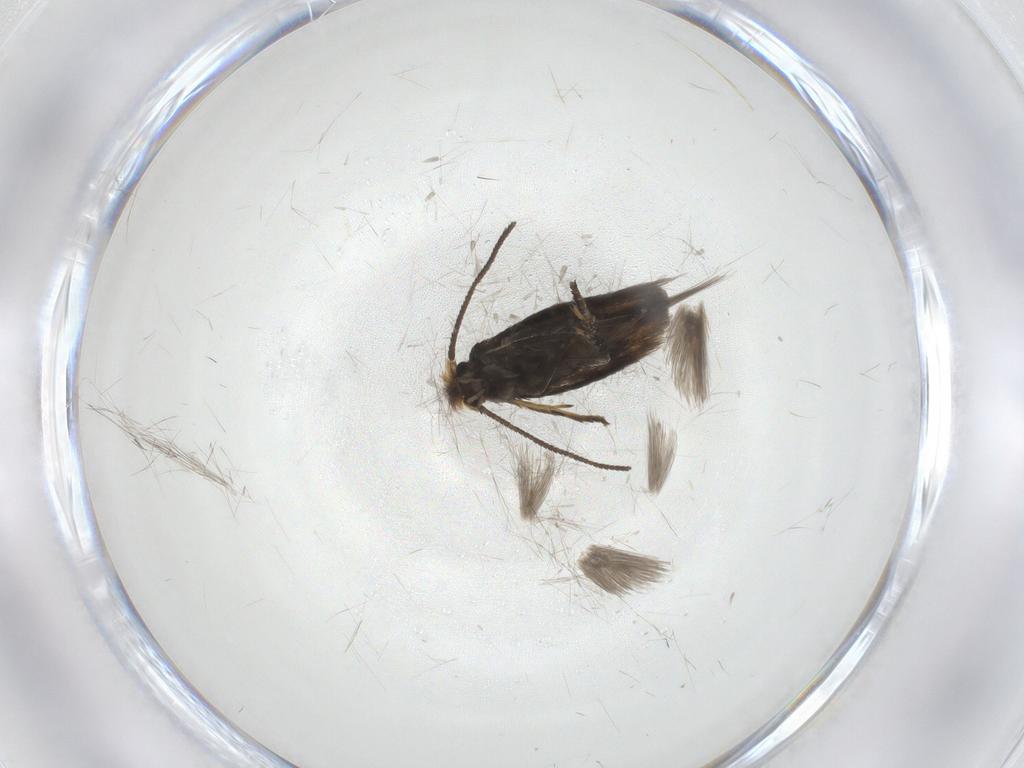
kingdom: Animalia
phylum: Arthropoda
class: Insecta
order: Lepidoptera
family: Nepticulidae
